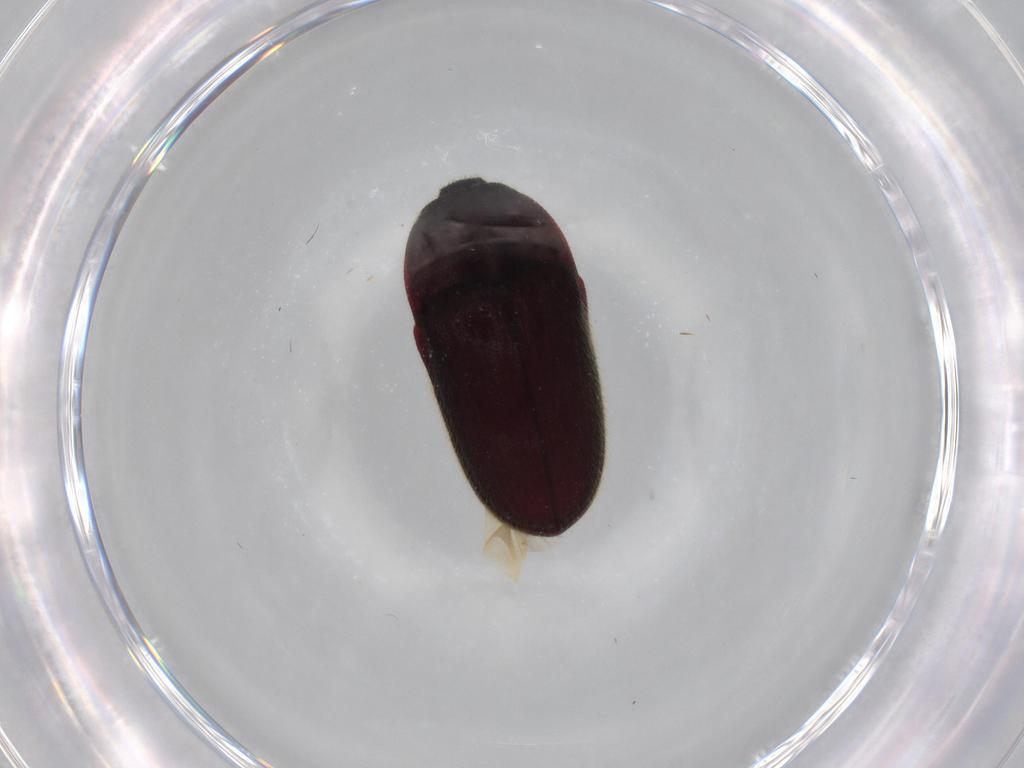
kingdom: Animalia
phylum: Arthropoda
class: Insecta
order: Coleoptera
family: Throscidae
